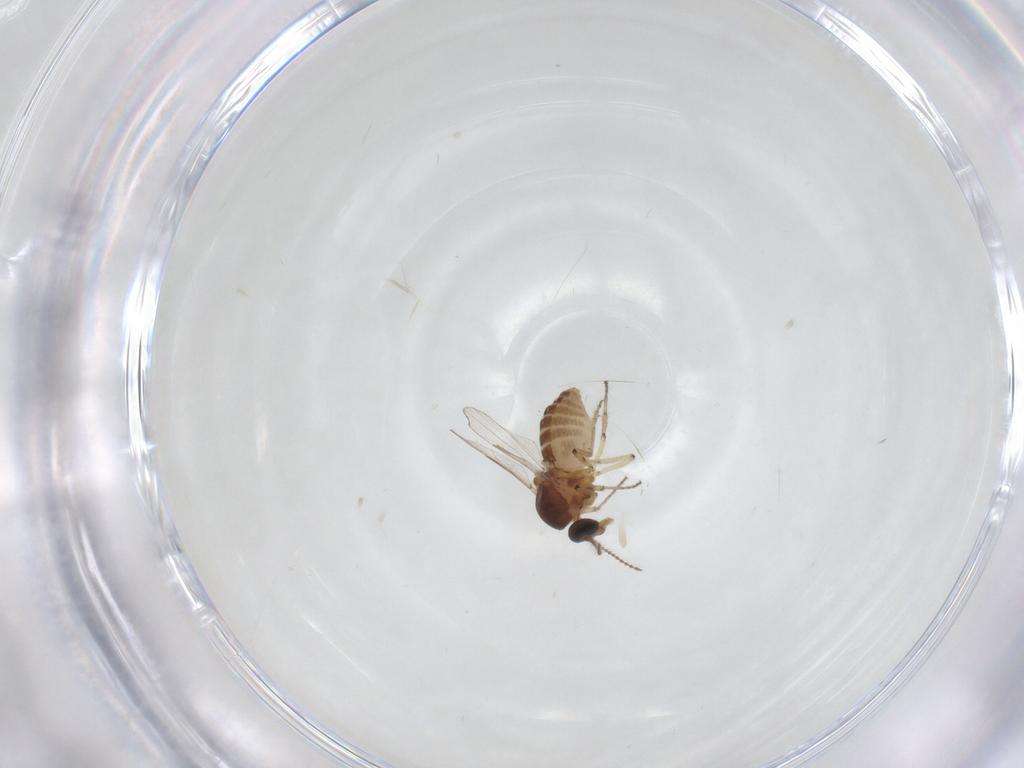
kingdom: Animalia
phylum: Arthropoda
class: Insecta
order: Diptera
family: Ceratopogonidae
